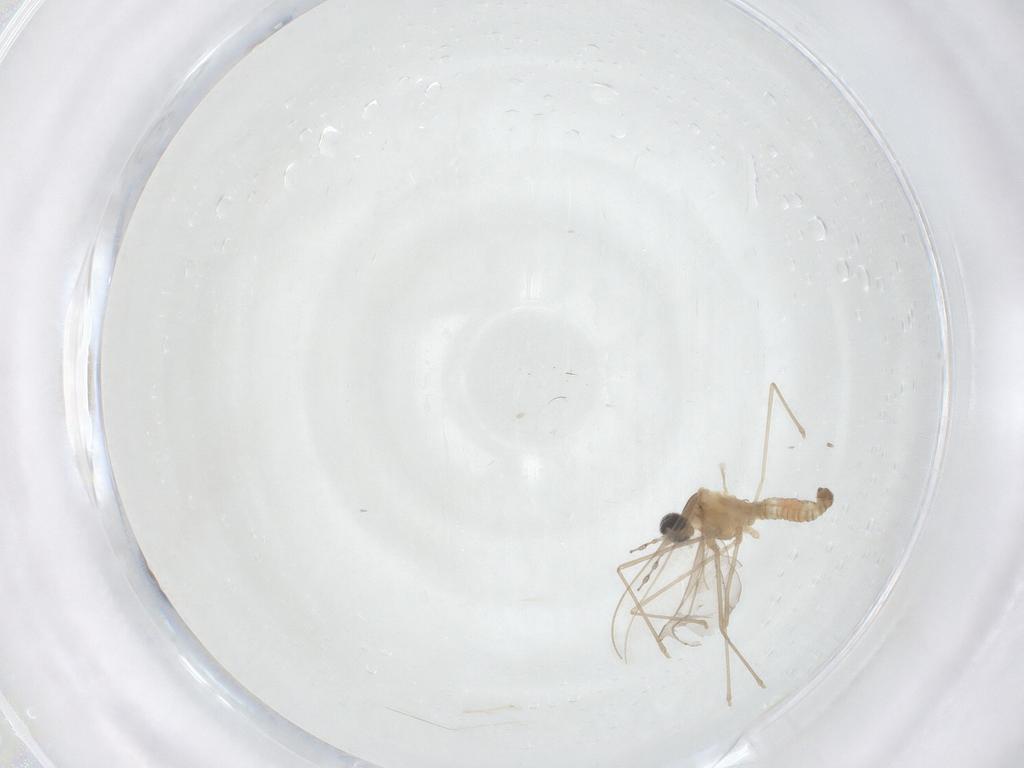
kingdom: Animalia
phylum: Arthropoda
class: Insecta
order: Diptera
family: Cecidomyiidae
